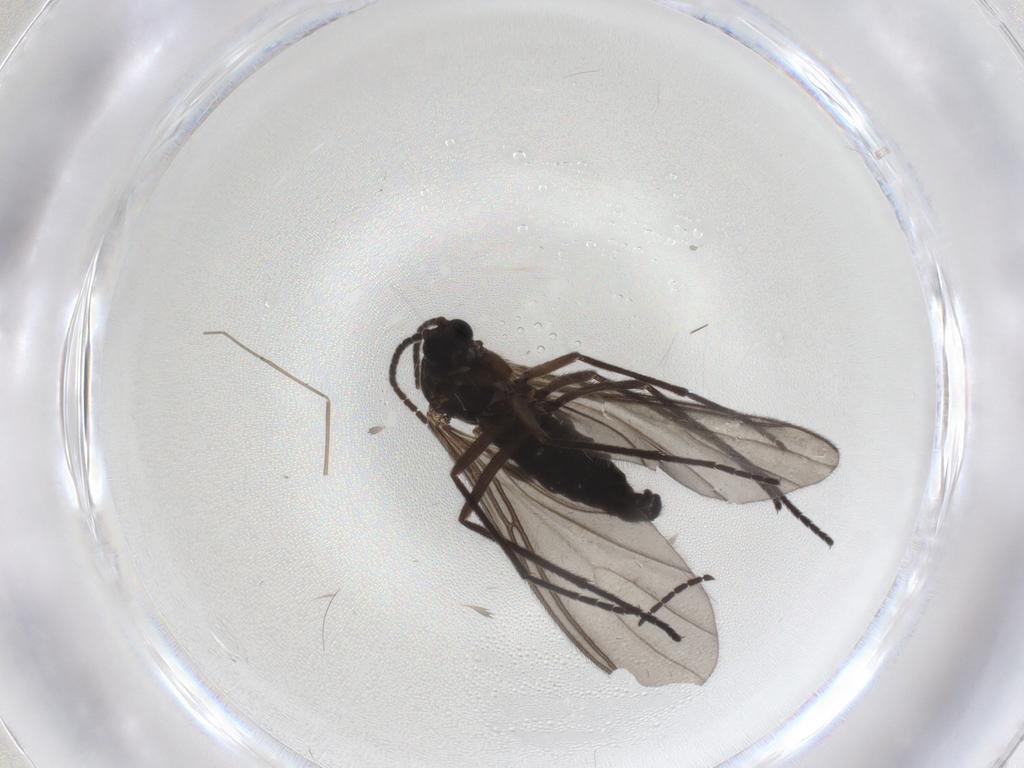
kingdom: Animalia
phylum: Arthropoda
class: Insecta
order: Diptera
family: Sciaridae
